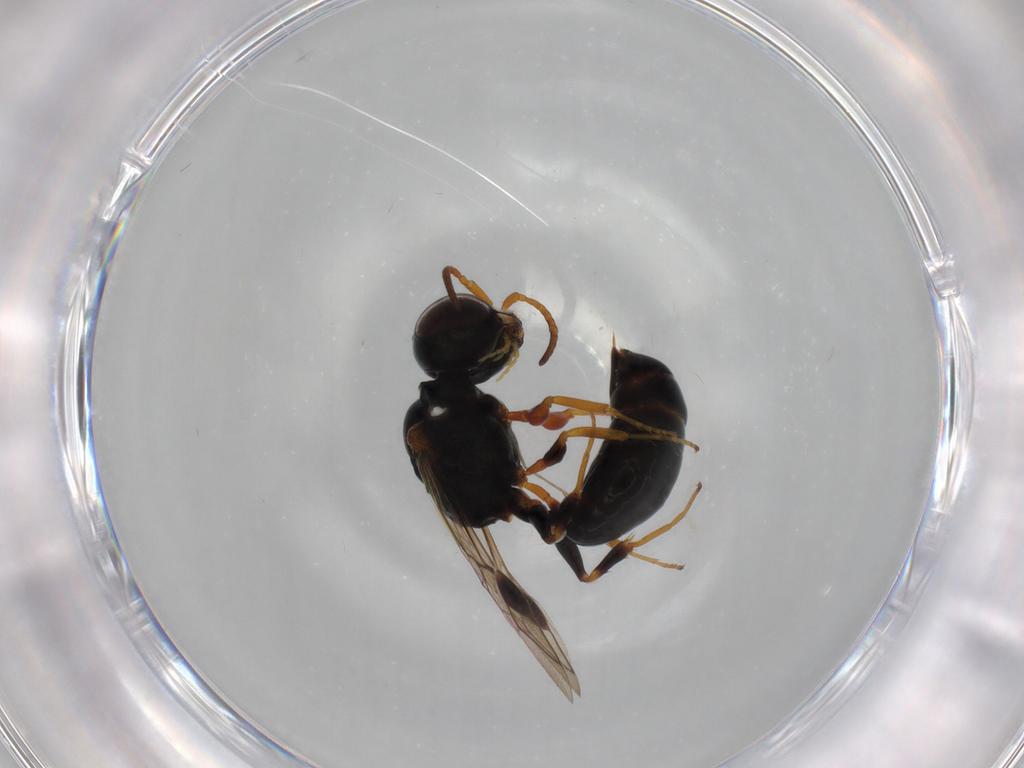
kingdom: Animalia
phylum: Arthropoda
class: Insecta
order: Hymenoptera
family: Pemphredonidae
